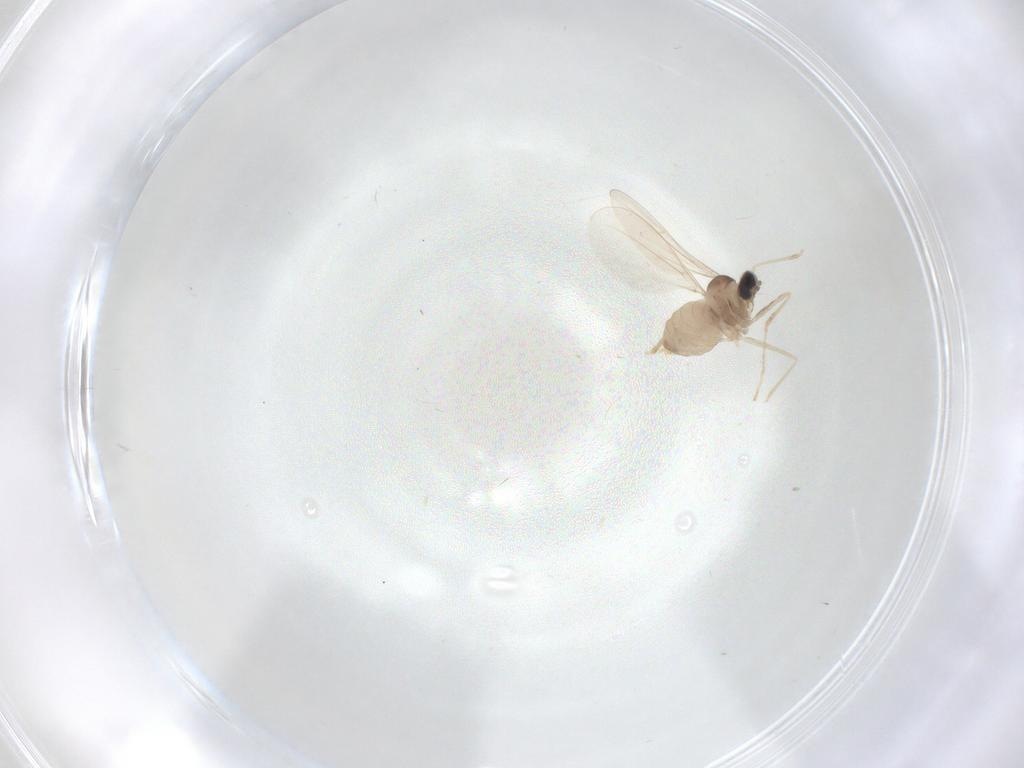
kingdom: Animalia
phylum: Arthropoda
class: Insecta
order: Diptera
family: Cecidomyiidae
